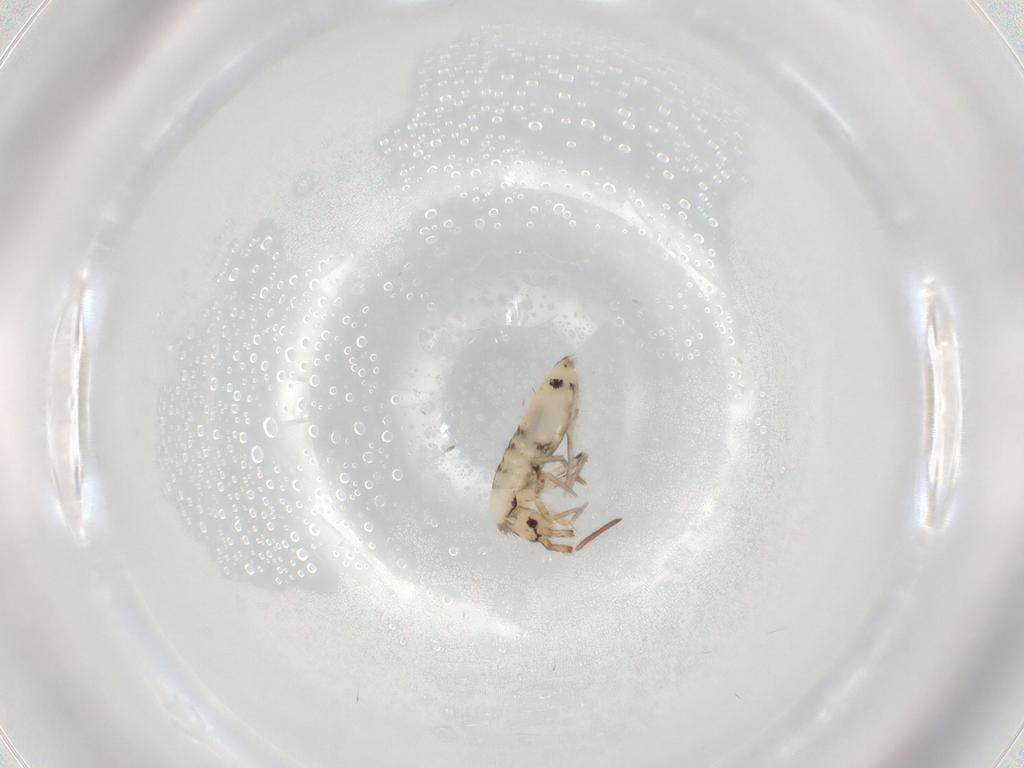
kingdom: Animalia
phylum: Arthropoda
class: Collembola
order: Entomobryomorpha
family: Entomobryidae
